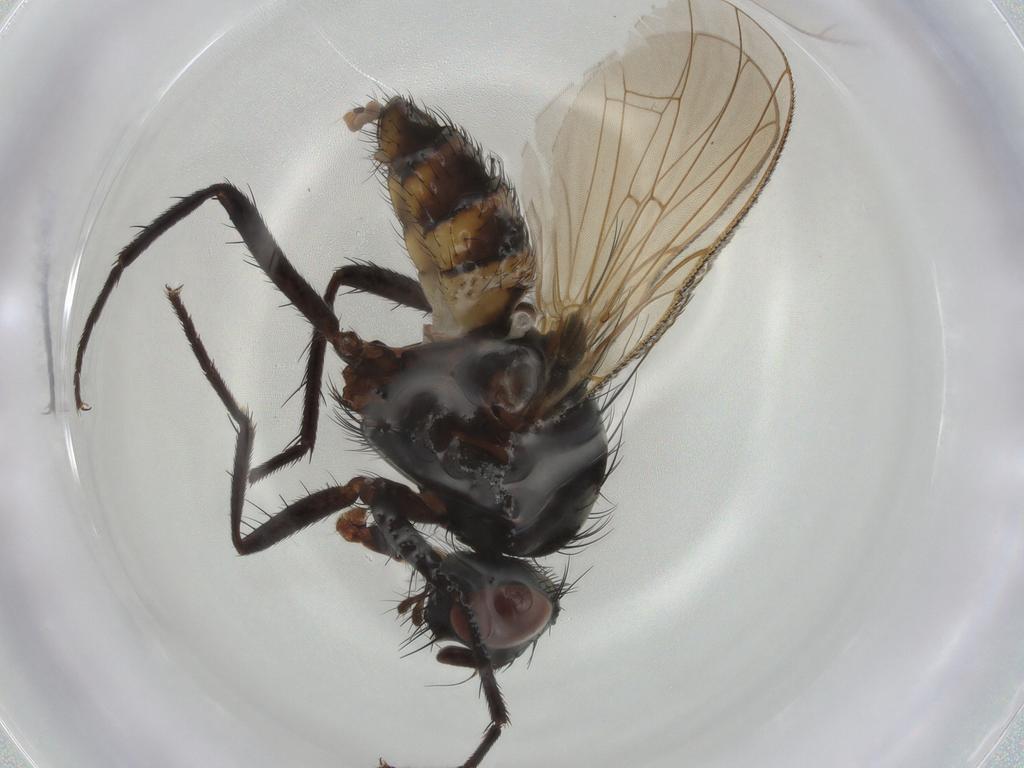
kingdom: Animalia
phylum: Arthropoda
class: Insecta
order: Diptera
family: Anthomyiidae
